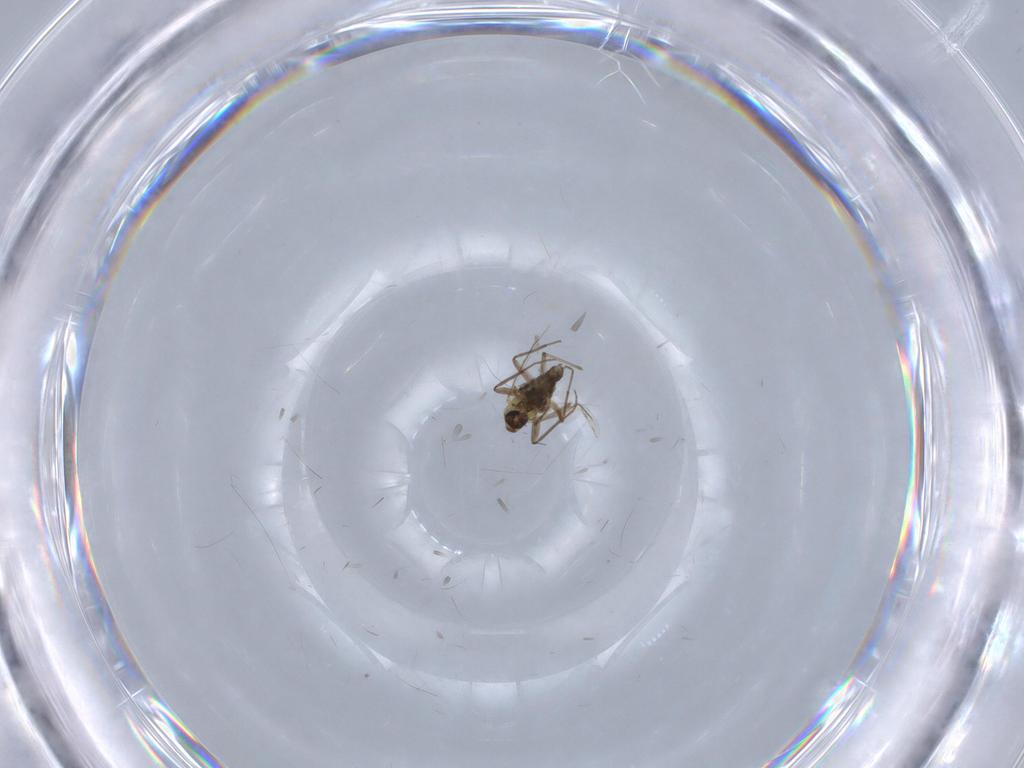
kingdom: Animalia
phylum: Arthropoda
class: Insecta
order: Diptera
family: Chironomidae
